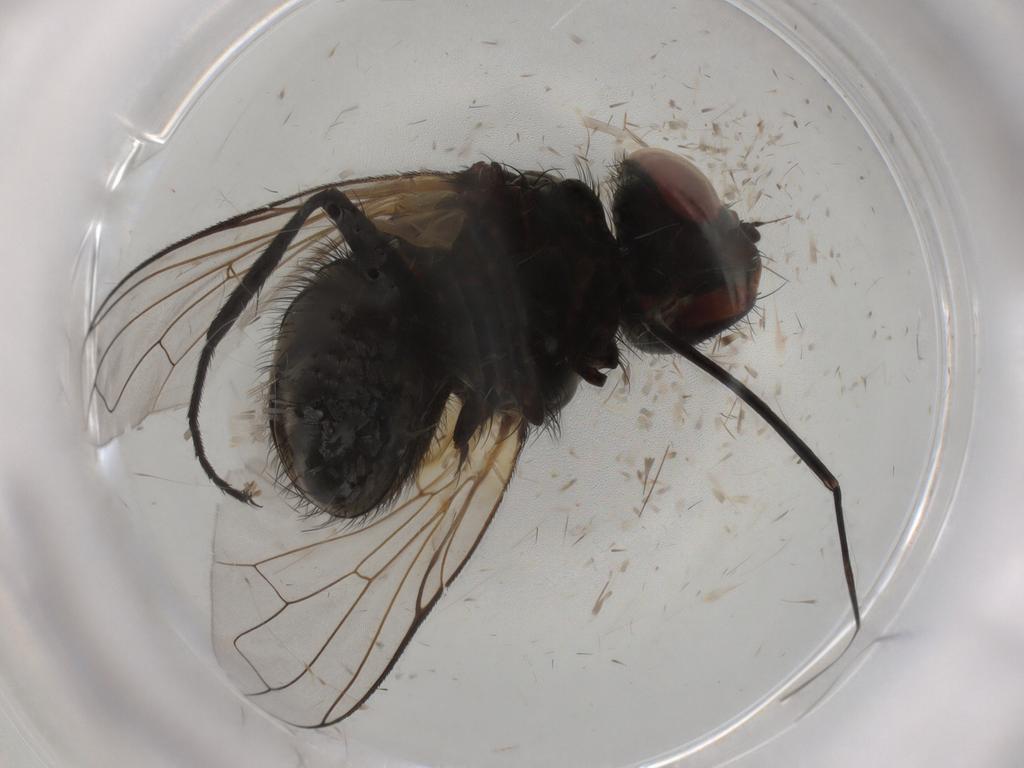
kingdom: Animalia
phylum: Arthropoda
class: Insecta
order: Diptera
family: Tachinidae
